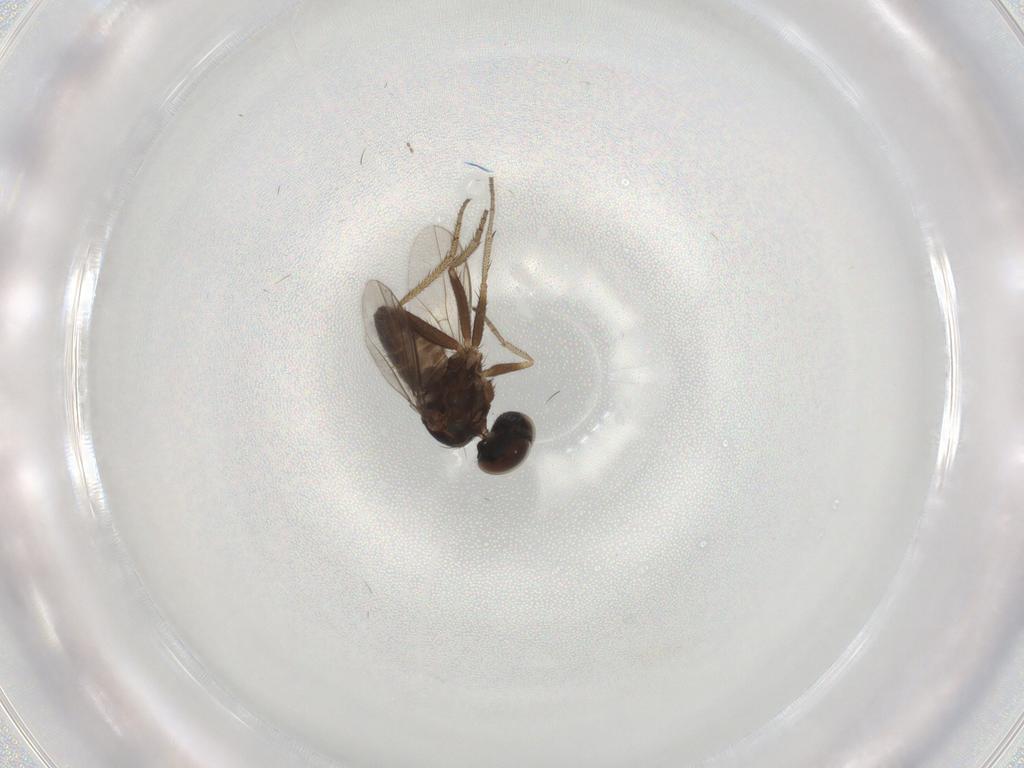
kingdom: Animalia
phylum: Arthropoda
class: Insecta
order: Diptera
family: Dolichopodidae
